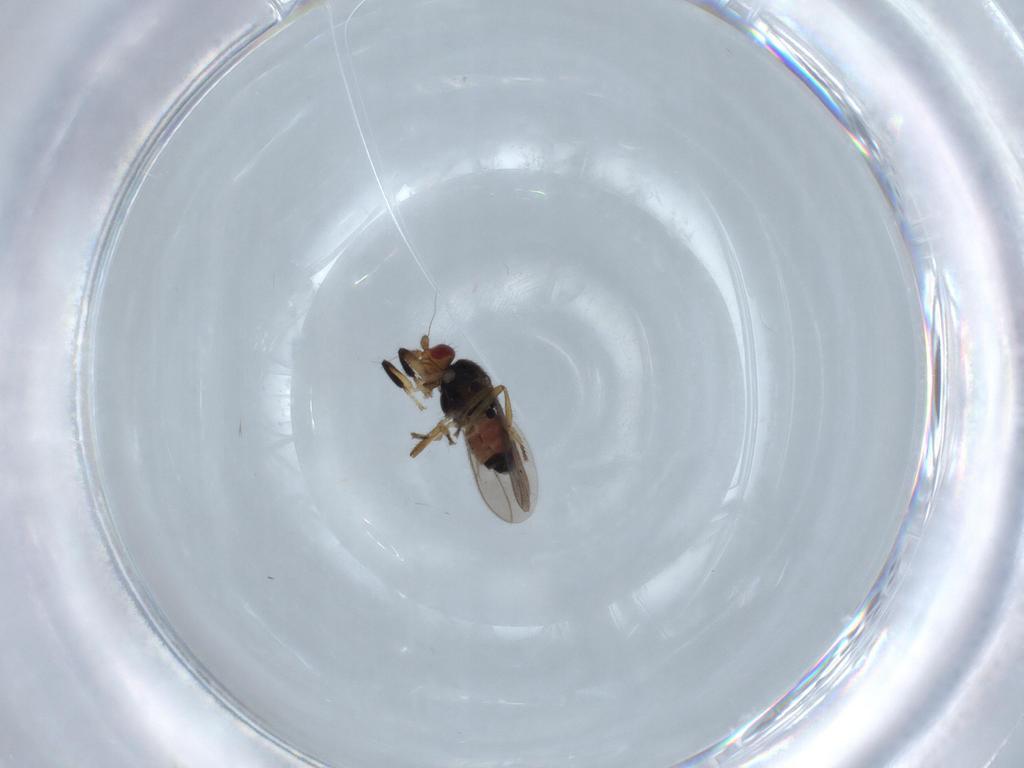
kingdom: Animalia
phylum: Arthropoda
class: Insecta
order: Diptera
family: Sphaeroceridae
